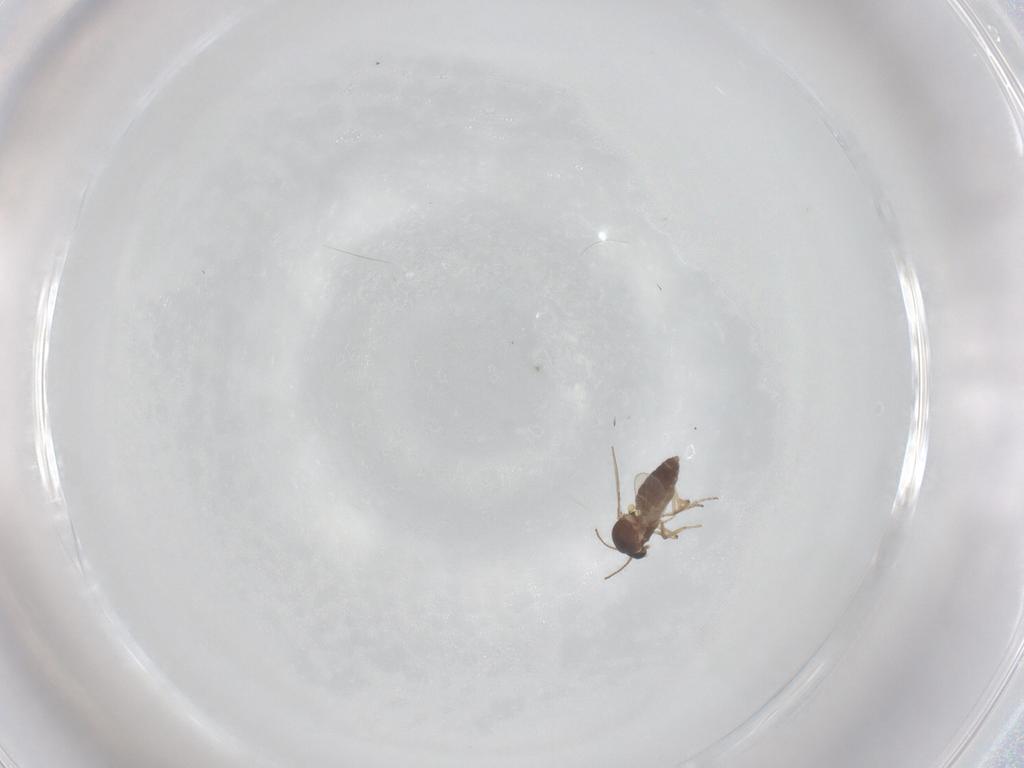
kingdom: Animalia
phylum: Arthropoda
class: Insecta
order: Diptera
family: Ceratopogonidae
